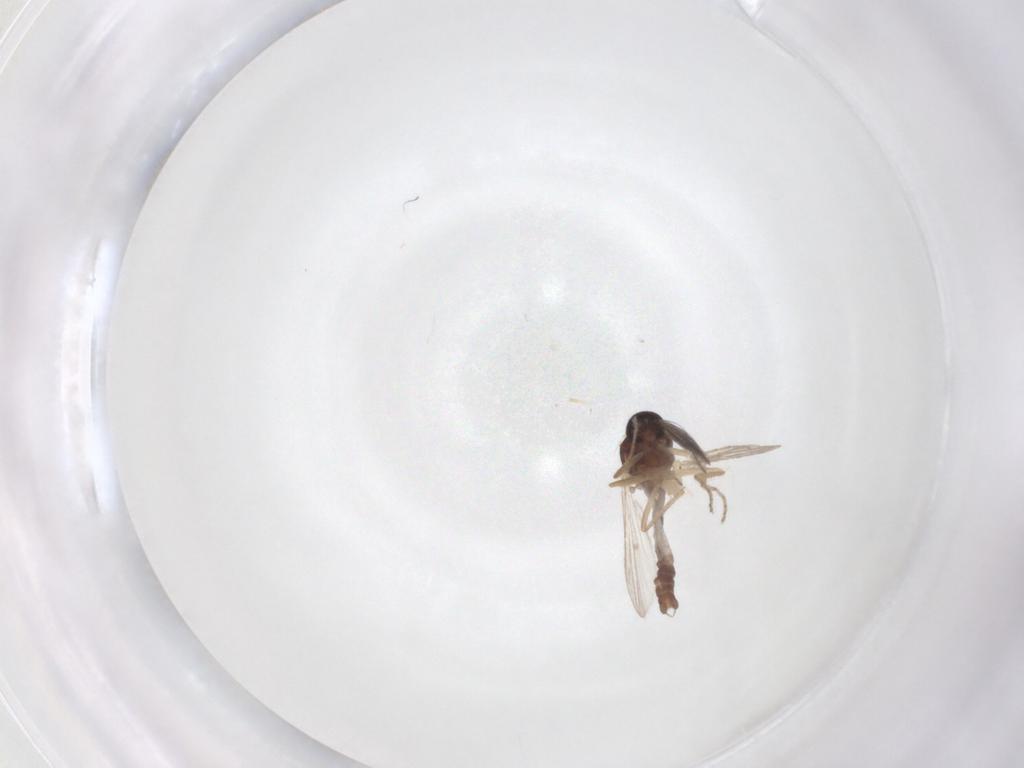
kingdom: Animalia
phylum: Arthropoda
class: Insecta
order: Diptera
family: Ceratopogonidae
